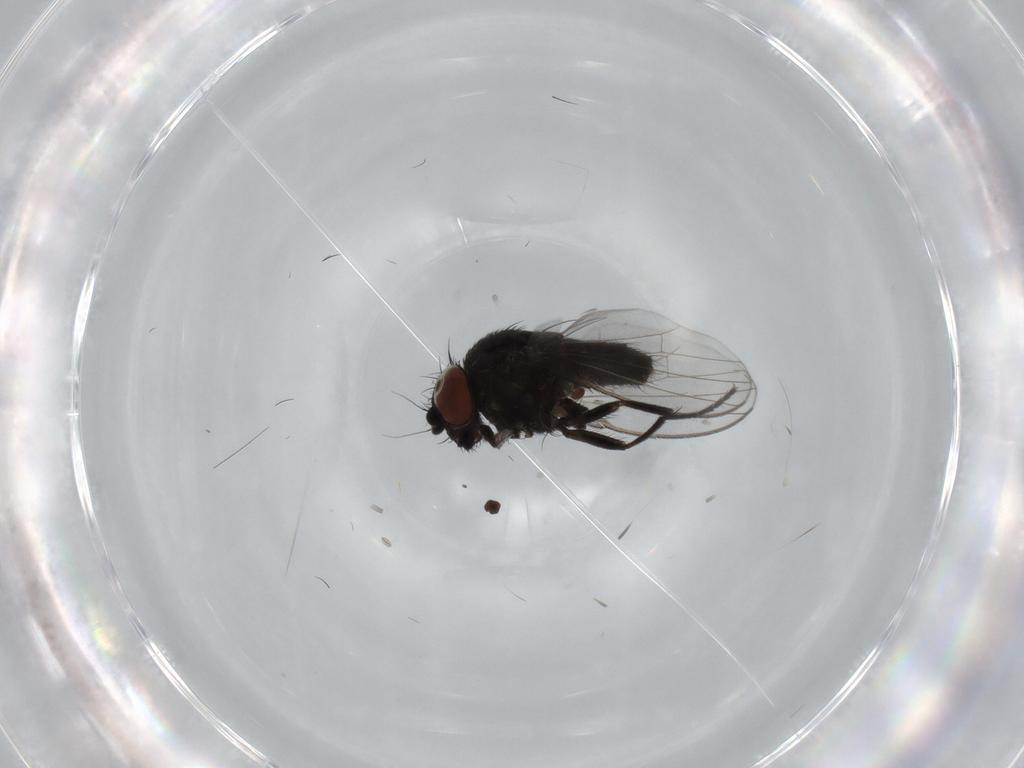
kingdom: Animalia
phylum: Arthropoda
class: Insecta
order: Diptera
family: Milichiidae
